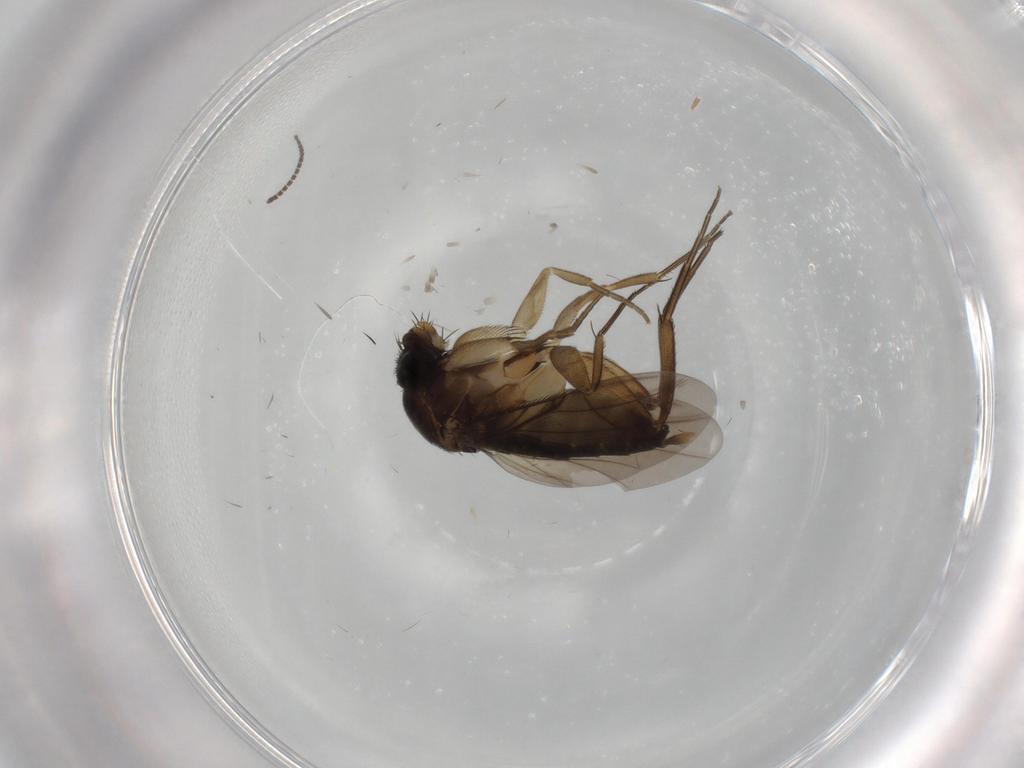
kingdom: Animalia
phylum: Arthropoda
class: Insecta
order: Diptera
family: Phoridae
